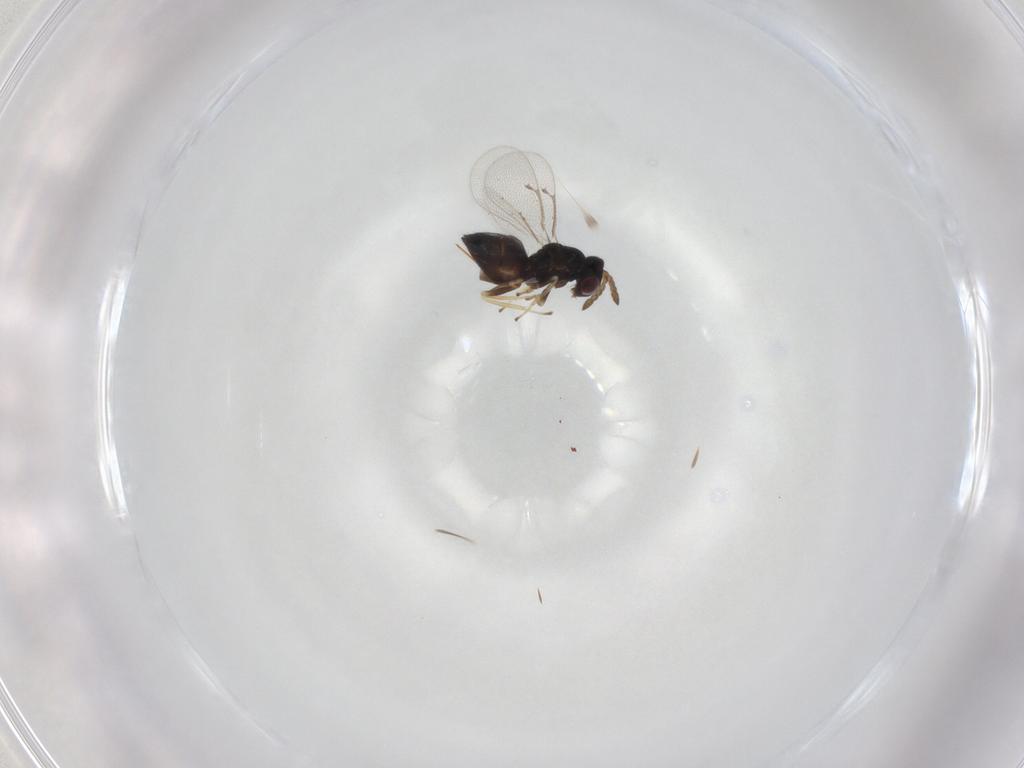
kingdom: Animalia
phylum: Arthropoda
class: Insecta
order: Hymenoptera
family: Eulophidae
